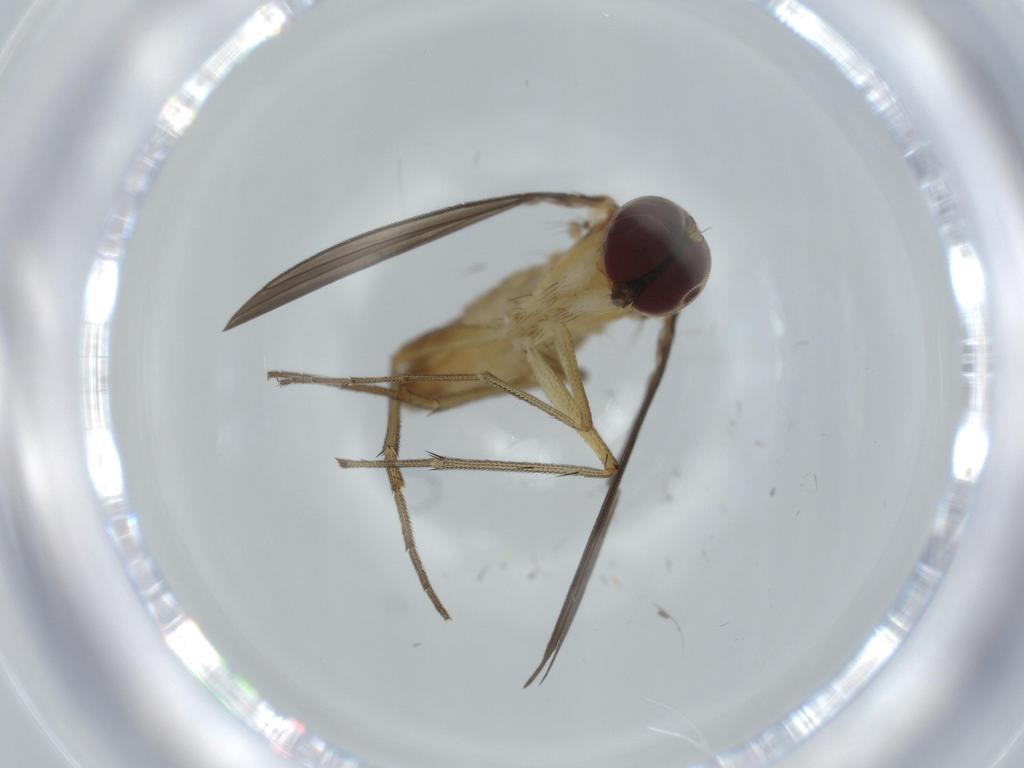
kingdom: Animalia
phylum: Arthropoda
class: Insecta
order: Diptera
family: Dolichopodidae
